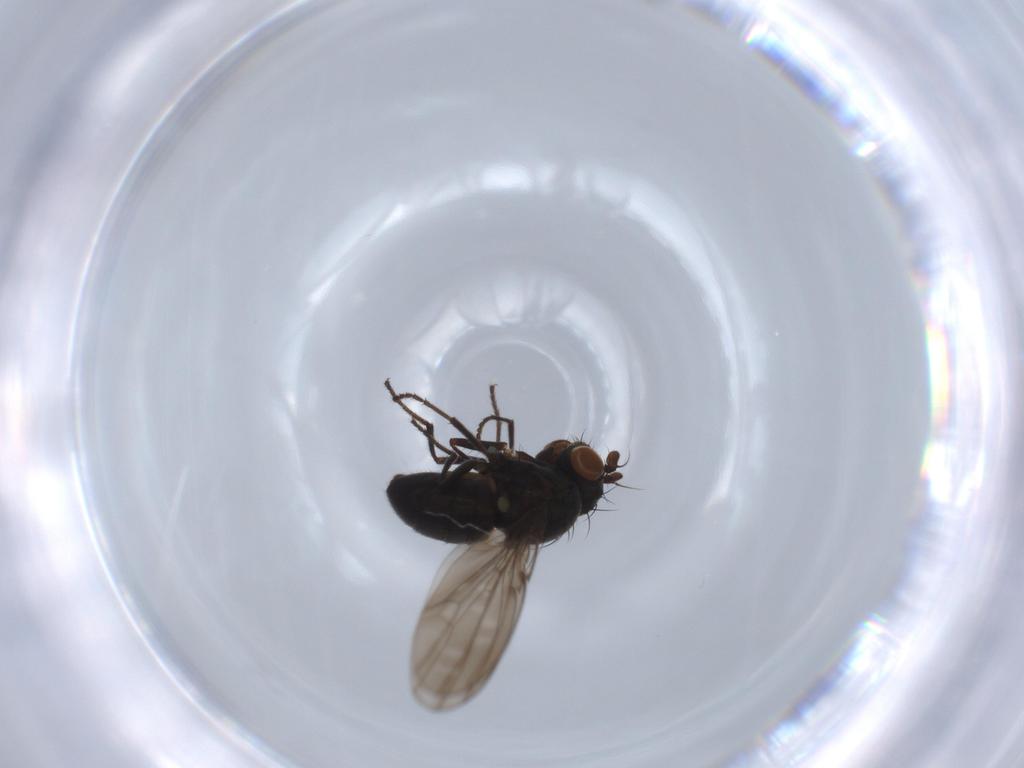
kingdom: Animalia
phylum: Arthropoda
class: Insecta
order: Diptera
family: Ephydridae
